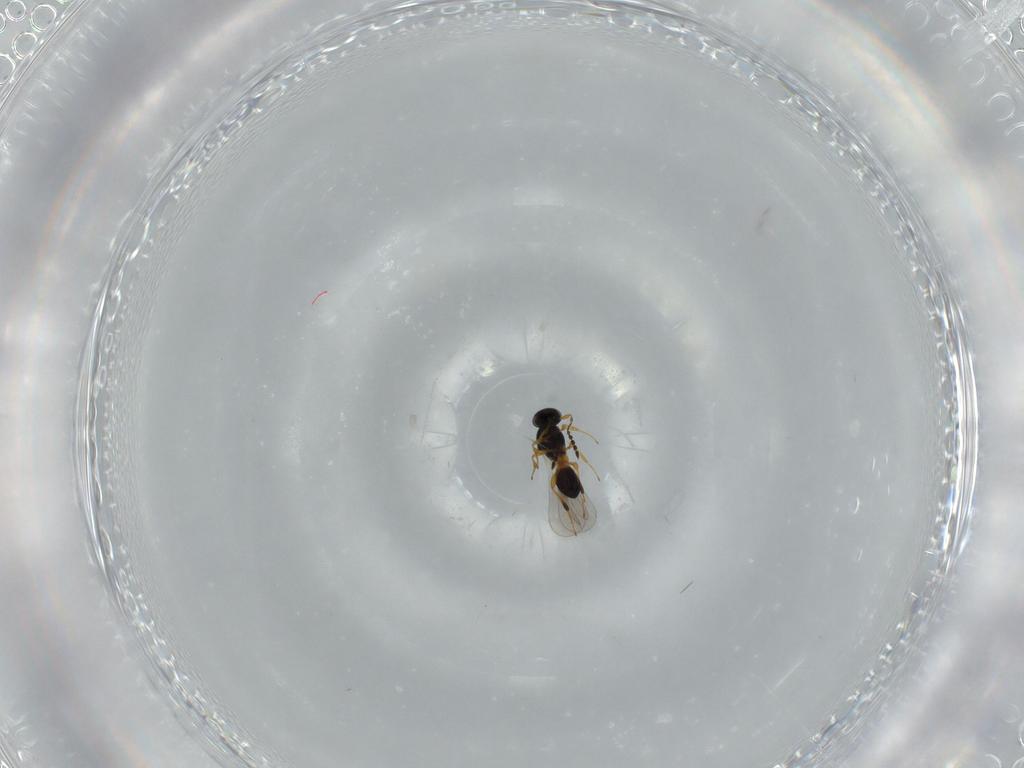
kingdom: Animalia
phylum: Arthropoda
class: Insecta
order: Hymenoptera
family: Platygastridae
